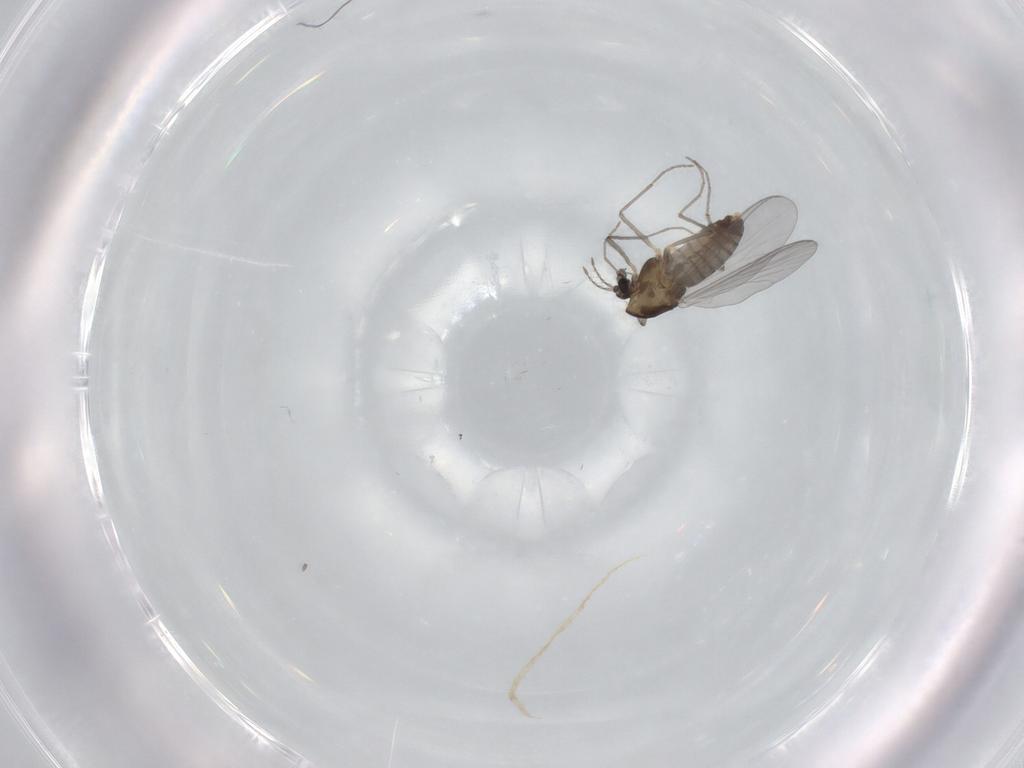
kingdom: Animalia
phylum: Arthropoda
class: Insecta
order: Diptera
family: Chironomidae
